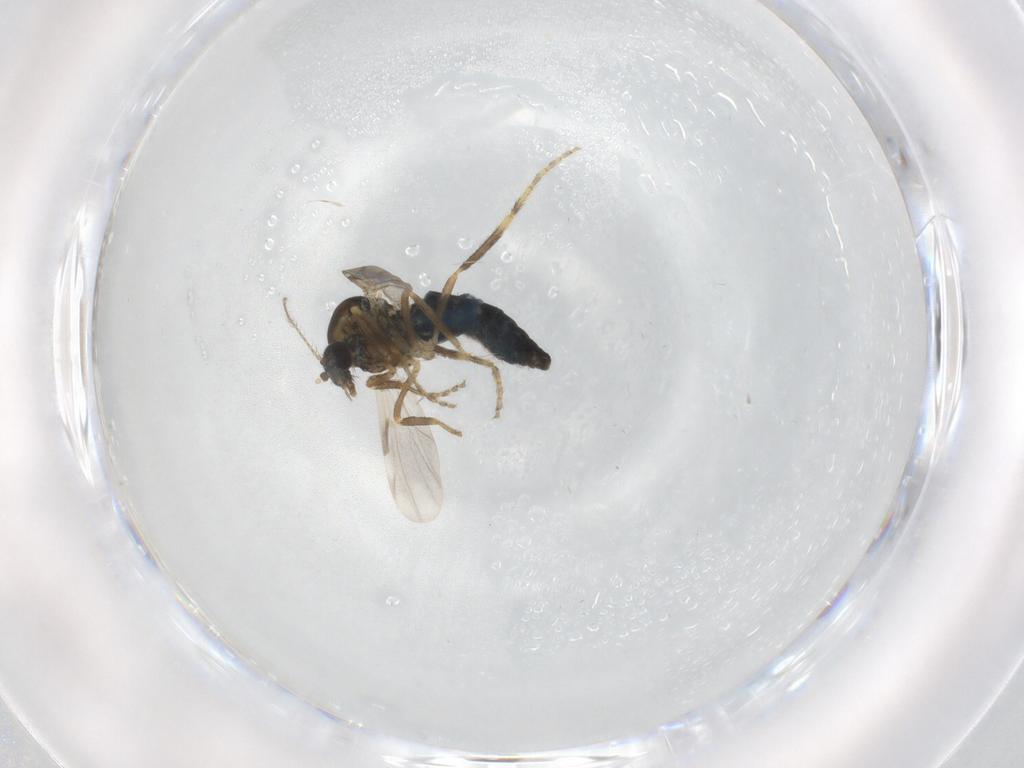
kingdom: Animalia
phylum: Arthropoda
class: Insecta
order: Diptera
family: Ceratopogonidae
